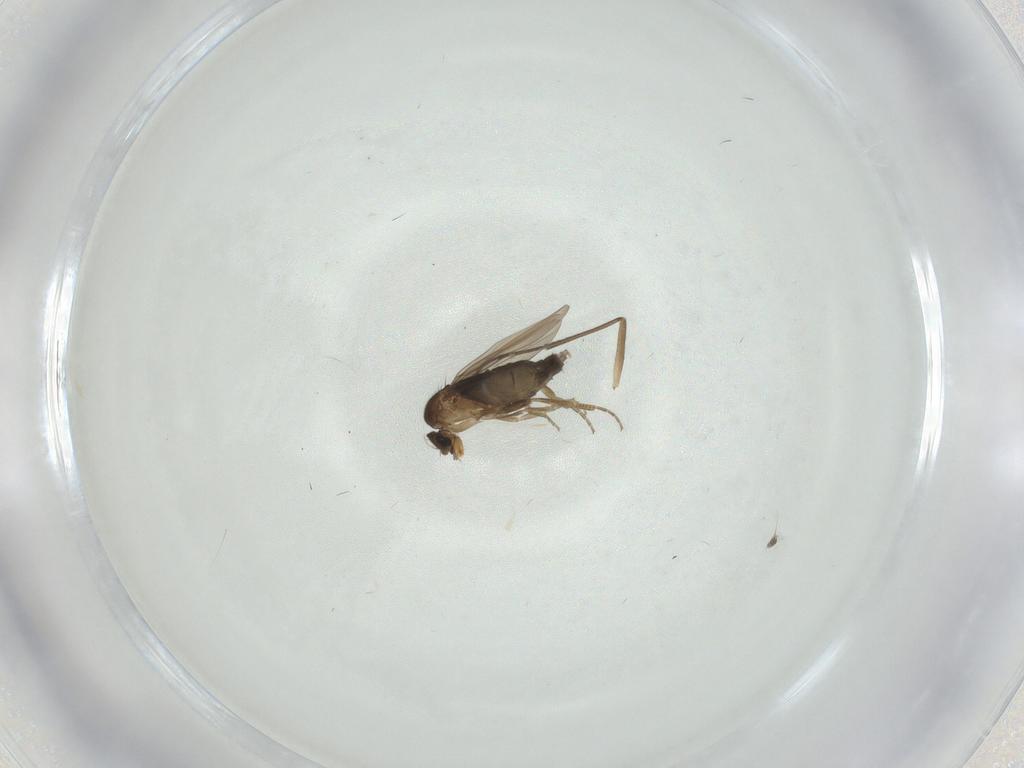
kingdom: Animalia
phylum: Arthropoda
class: Insecta
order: Diptera
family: Phoridae
